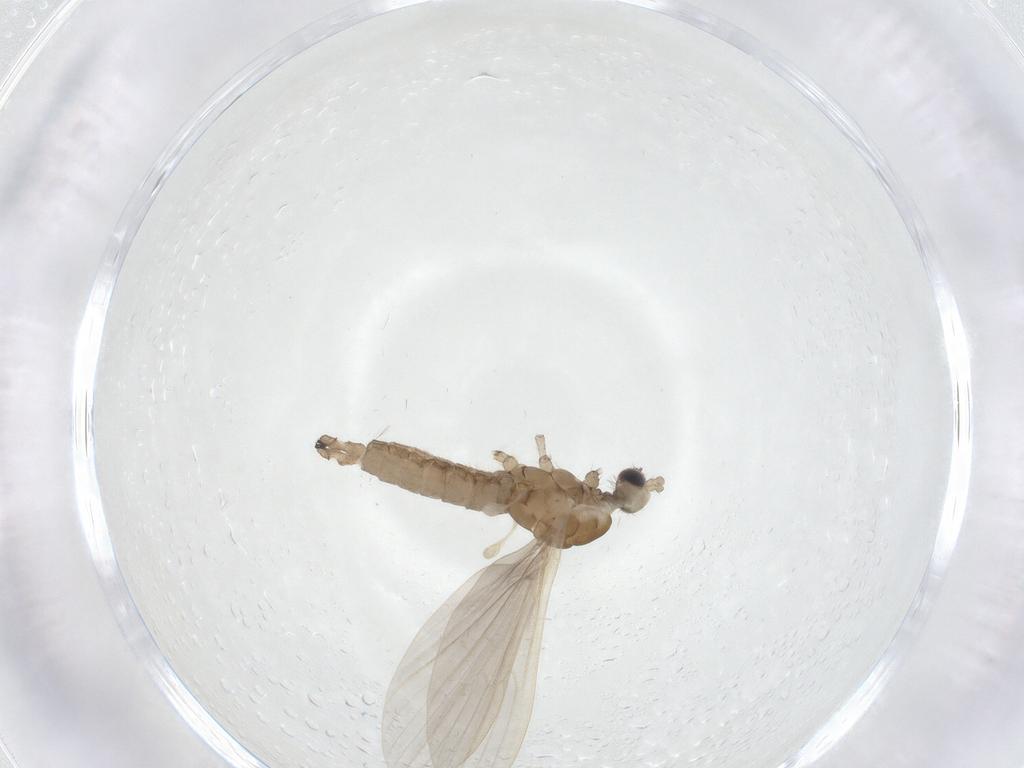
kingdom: Animalia
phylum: Arthropoda
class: Insecta
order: Diptera
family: Limoniidae
